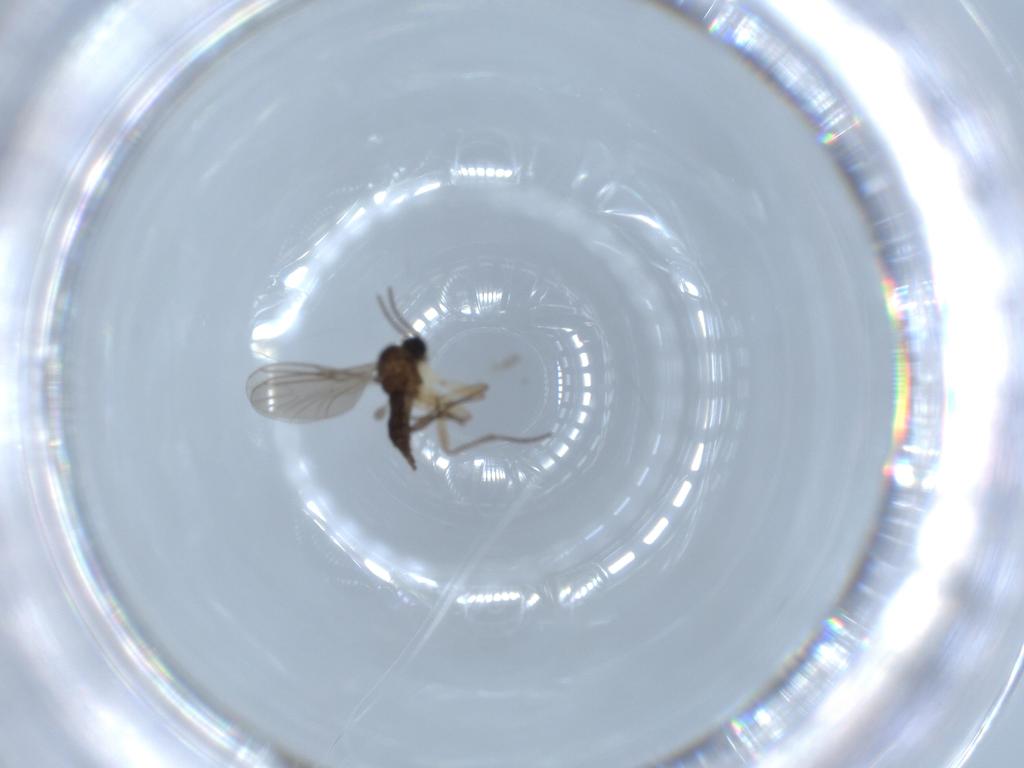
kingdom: Animalia
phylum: Arthropoda
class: Insecta
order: Diptera
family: Sciaridae
